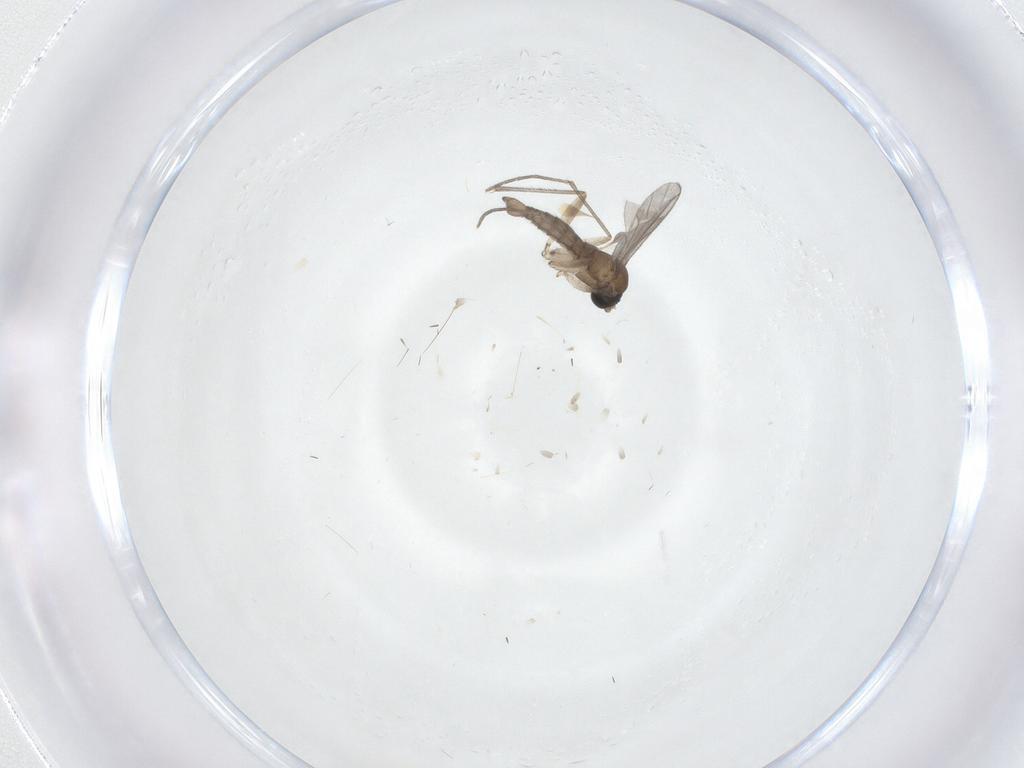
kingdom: Animalia
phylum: Arthropoda
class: Insecta
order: Diptera
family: Sciaridae
